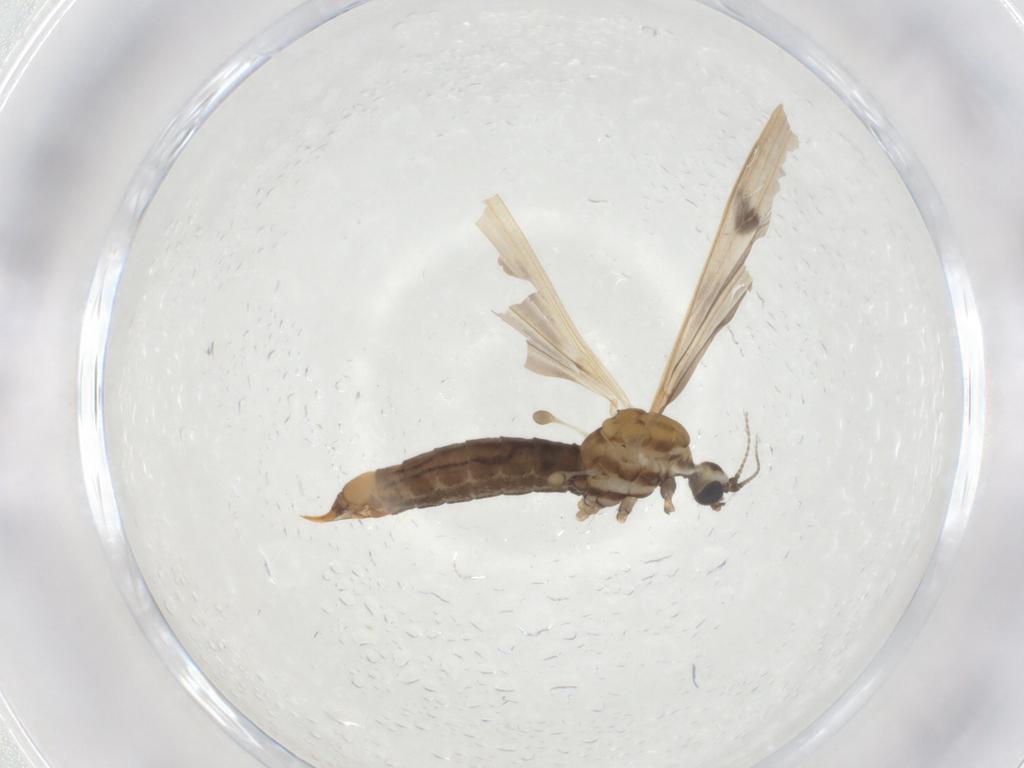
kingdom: Animalia
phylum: Arthropoda
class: Insecta
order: Diptera
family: Limoniidae
